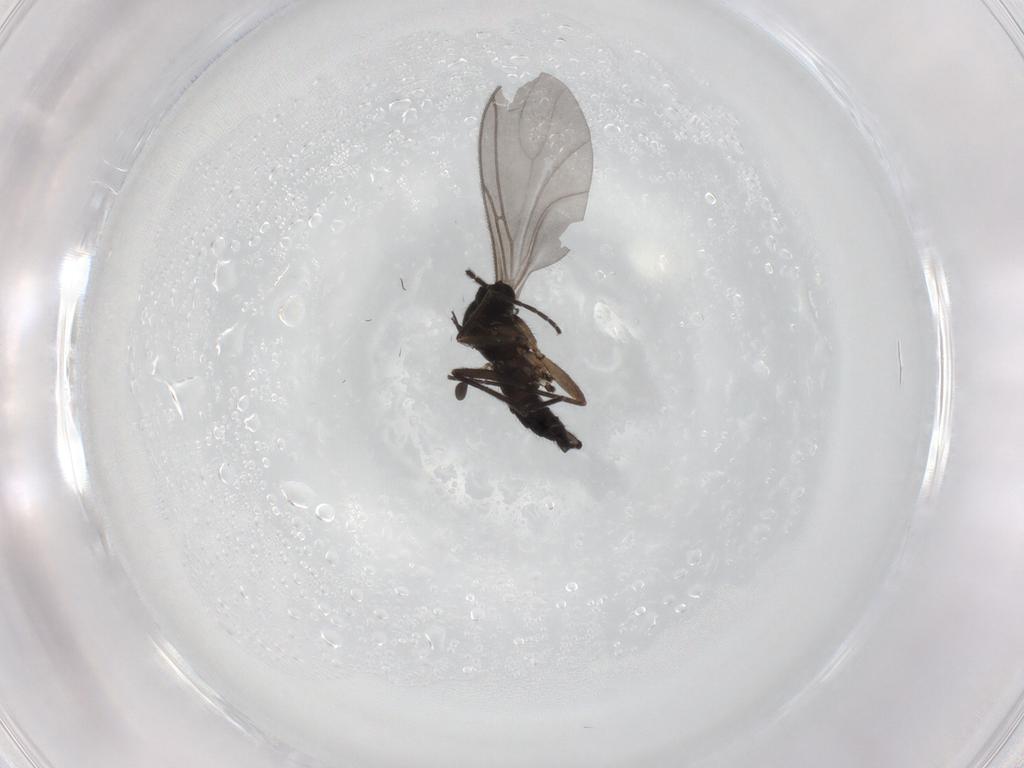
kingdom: Animalia
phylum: Arthropoda
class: Insecta
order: Diptera
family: Sciaridae
